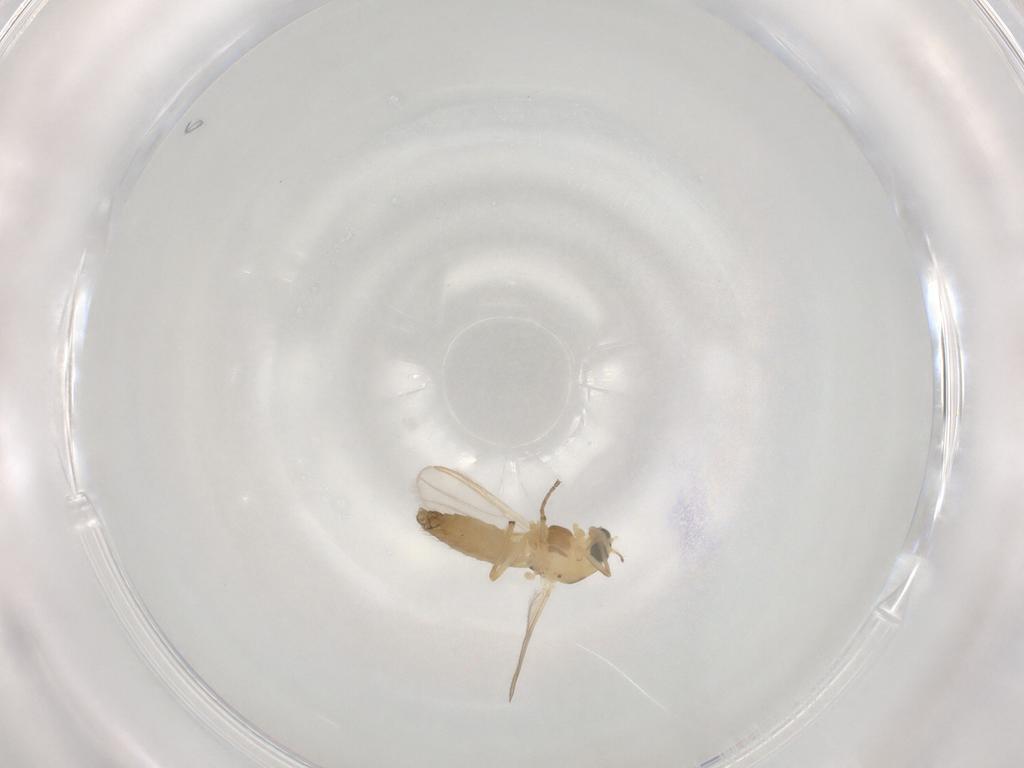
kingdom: Animalia
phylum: Arthropoda
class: Insecta
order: Diptera
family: Chironomidae
